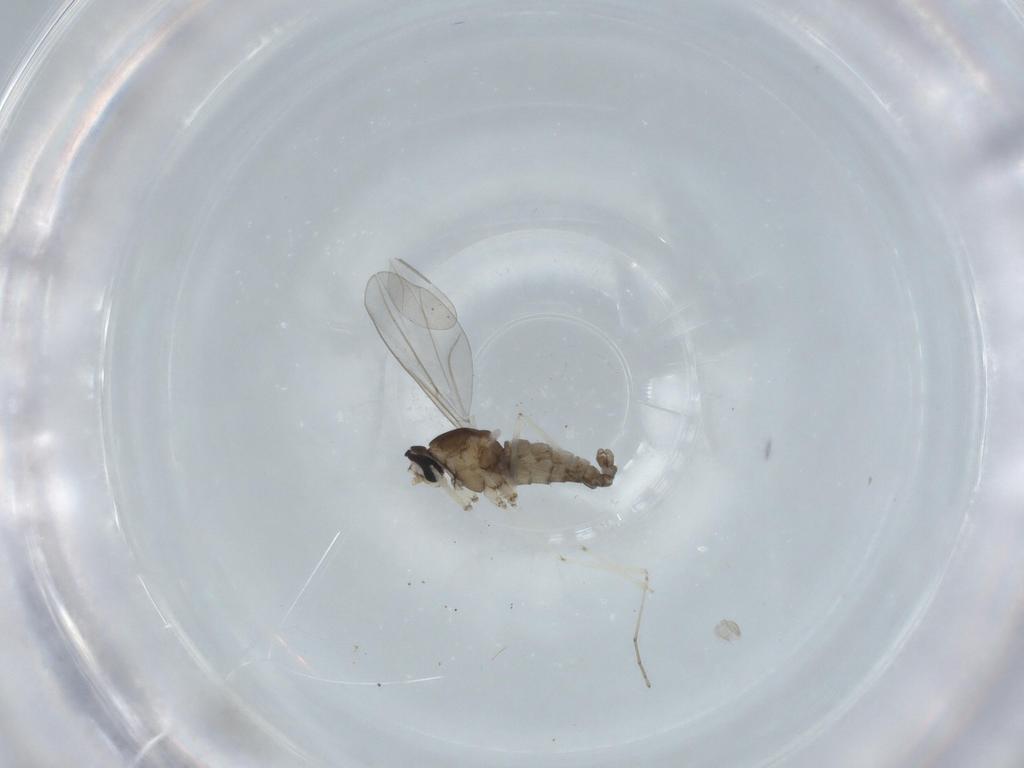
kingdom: Animalia
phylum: Arthropoda
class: Insecta
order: Diptera
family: Cecidomyiidae
